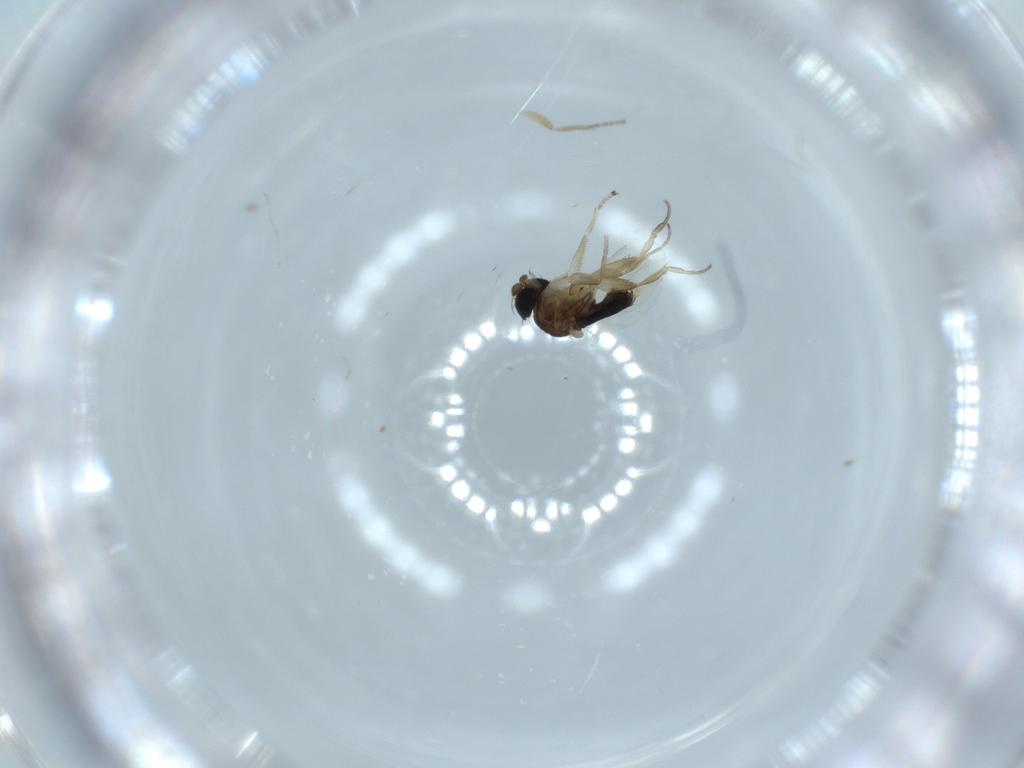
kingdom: Animalia
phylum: Arthropoda
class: Insecta
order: Diptera
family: Phoridae
